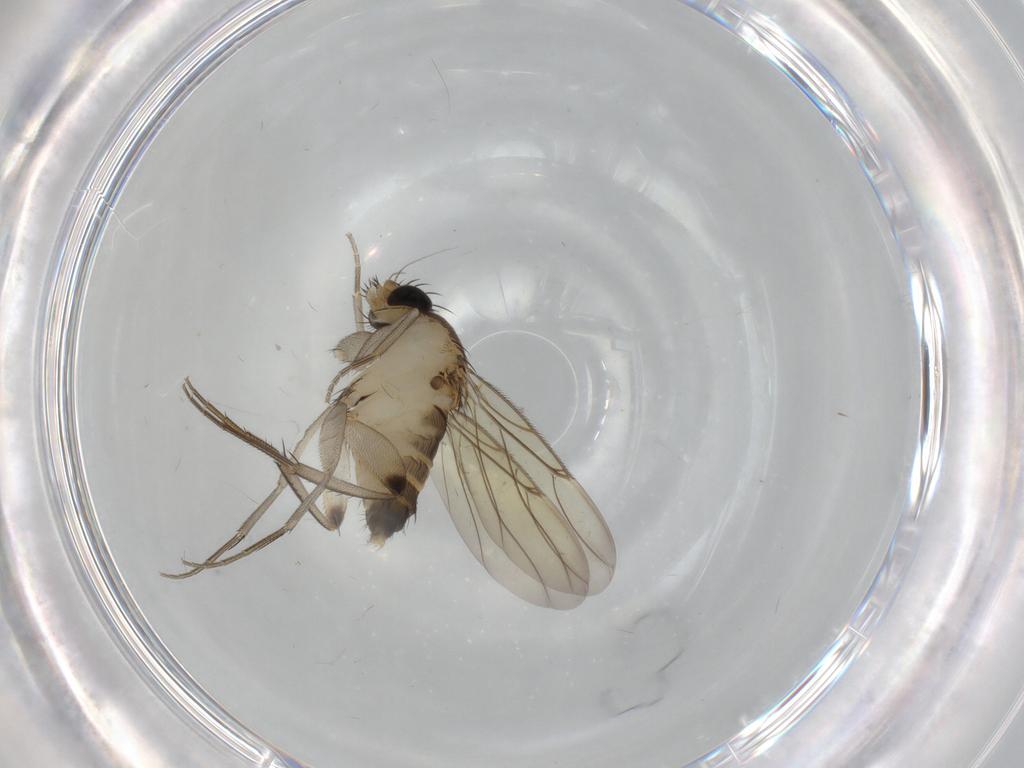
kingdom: Animalia
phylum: Arthropoda
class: Insecta
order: Diptera
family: Phoridae
